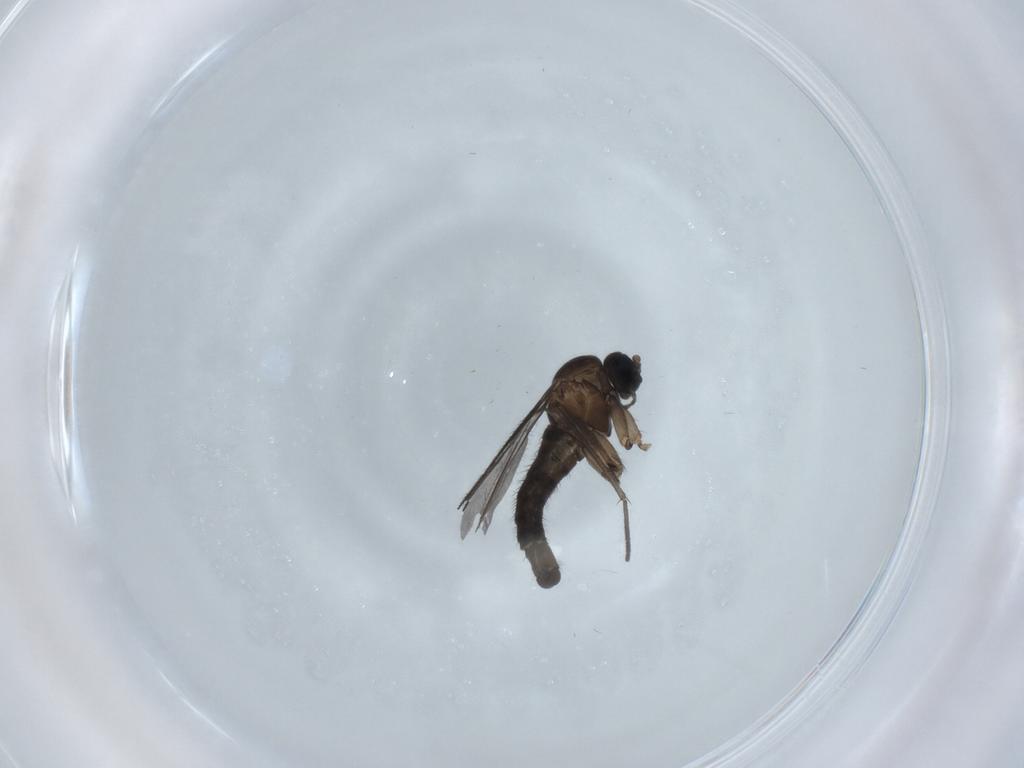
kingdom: Animalia
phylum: Arthropoda
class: Insecta
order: Diptera
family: Sciaridae
